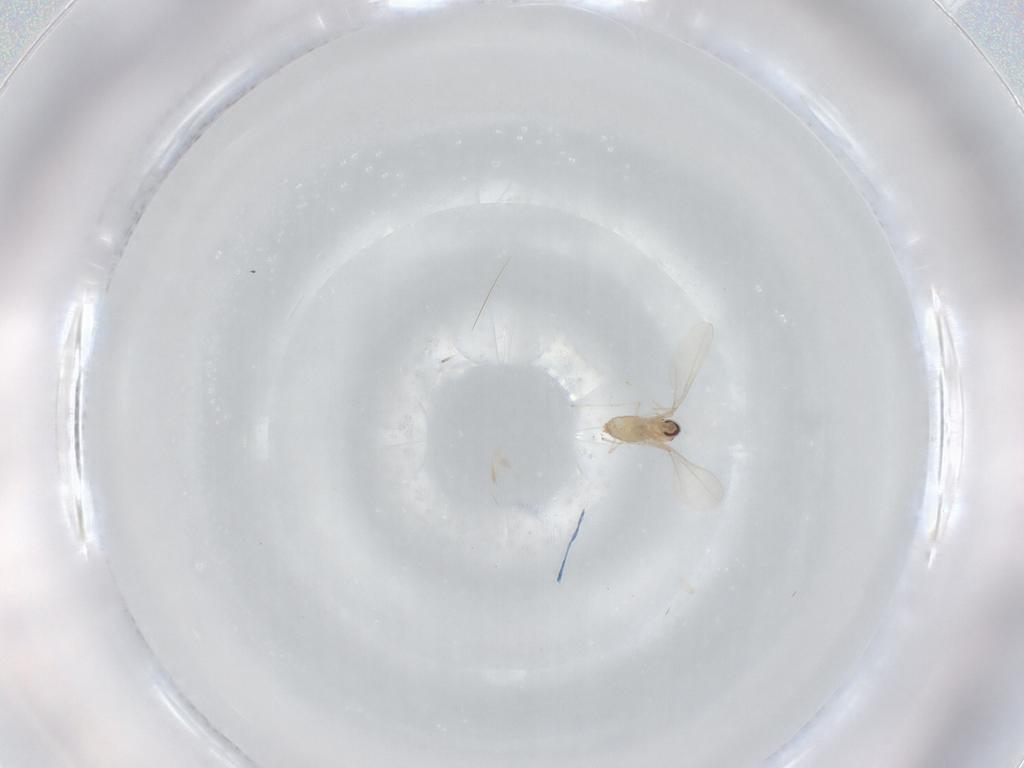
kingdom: Animalia
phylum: Arthropoda
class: Insecta
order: Diptera
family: Cecidomyiidae
